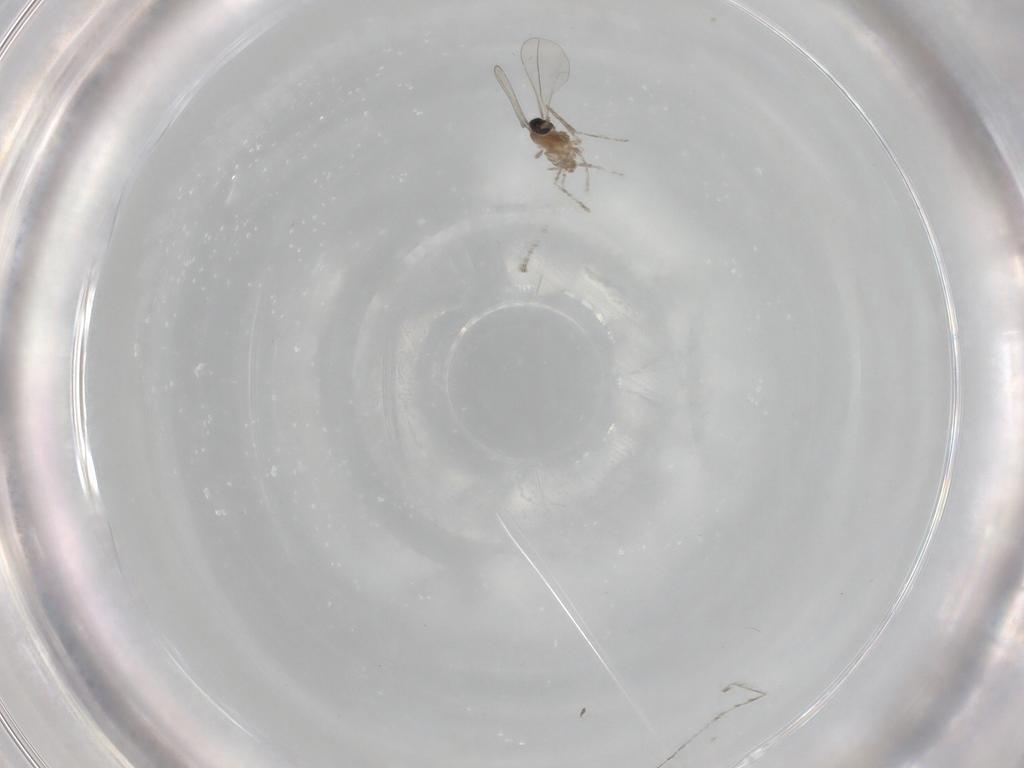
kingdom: Animalia
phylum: Arthropoda
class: Insecta
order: Diptera
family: Cecidomyiidae
